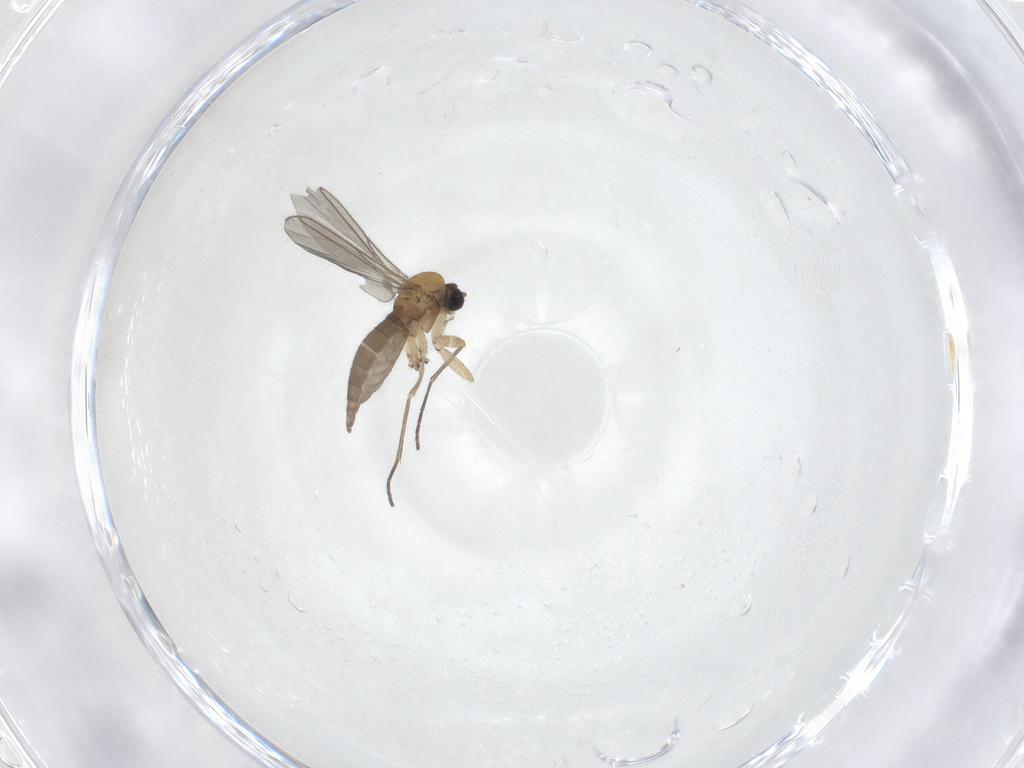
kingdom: Animalia
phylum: Arthropoda
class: Insecta
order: Diptera
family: Sciaridae
